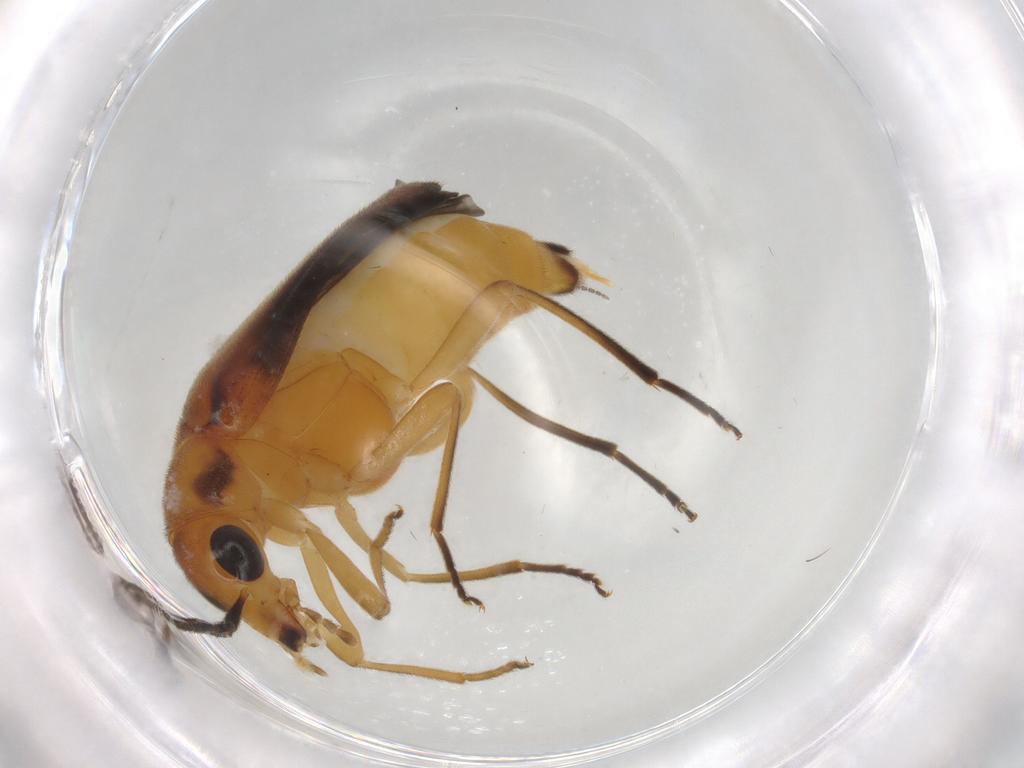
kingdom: Animalia
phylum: Arthropoda
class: Insecta
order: Coleoptera
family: Oedemeridae
